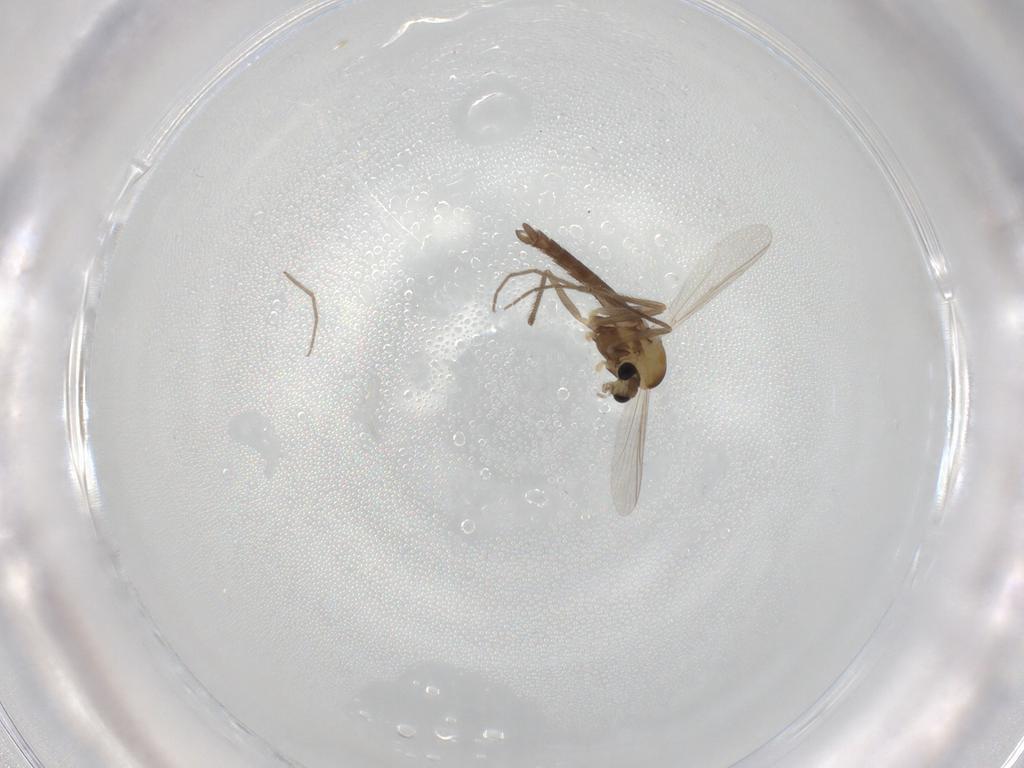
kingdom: Animalia
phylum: Arthropoda
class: Insecta
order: Diptera
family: Chironomidae
